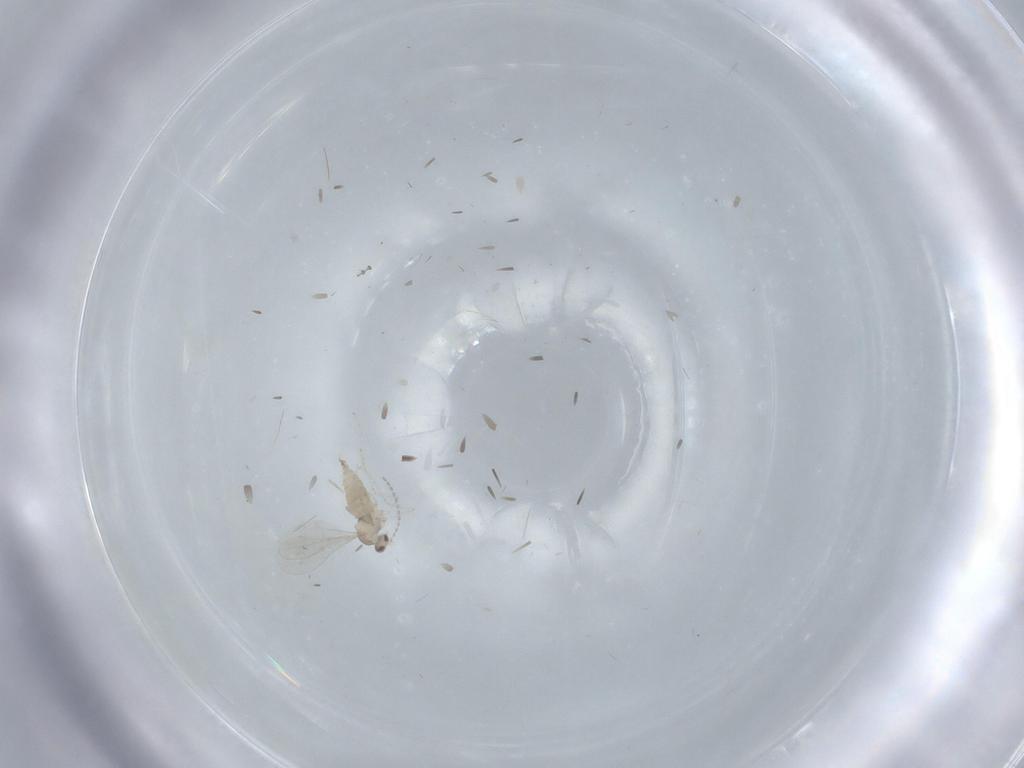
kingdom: Animalia
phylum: Arthropoda
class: Insecta
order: Diptera
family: Cecidomyiidae
